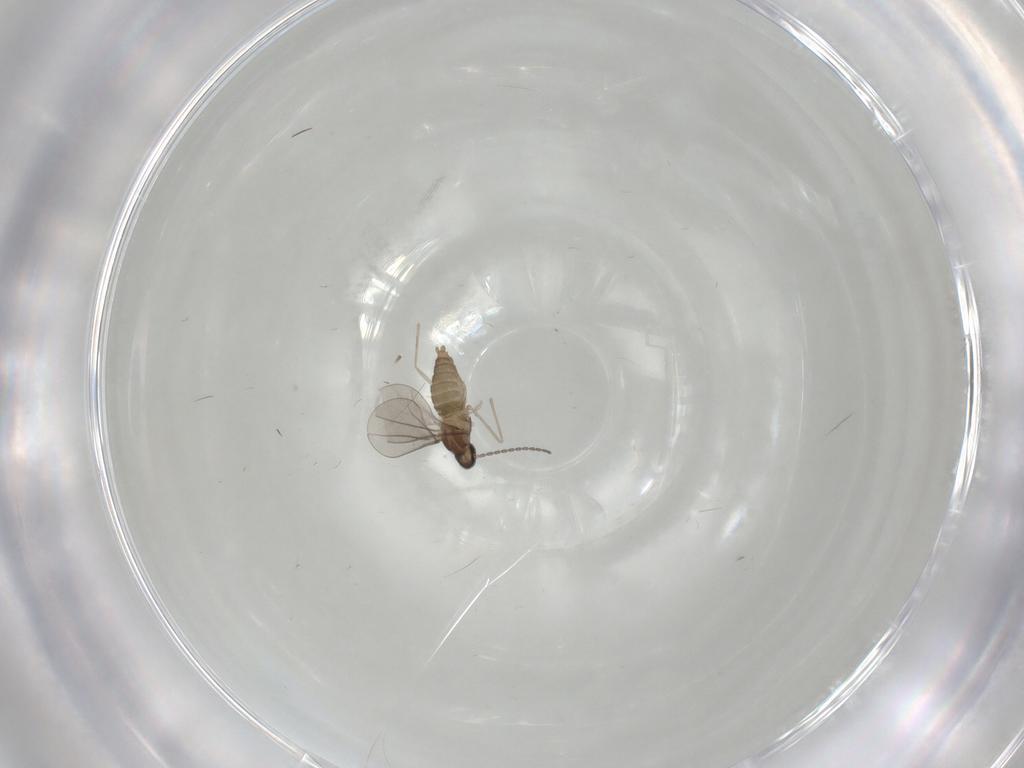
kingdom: Animalia
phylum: Arthropoda
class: Insecta
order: Diptera
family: Cecidomyiidae
